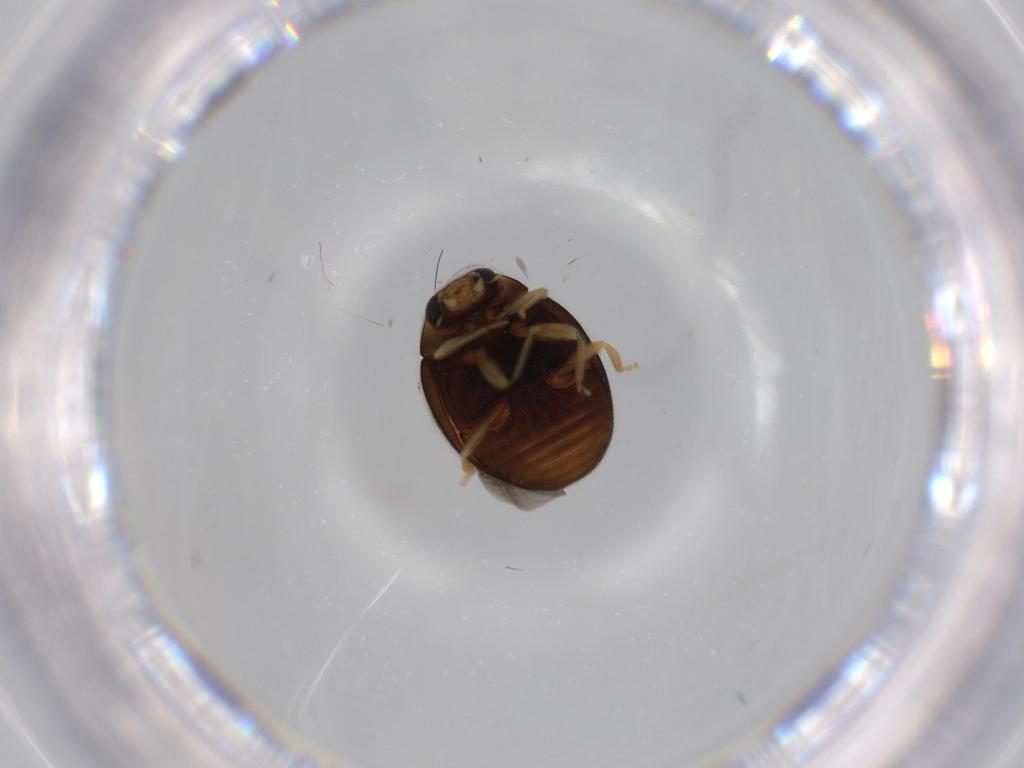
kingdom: Animalia
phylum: Arthropoda
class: Insecta
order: Coleoptera
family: Coccinellidae
